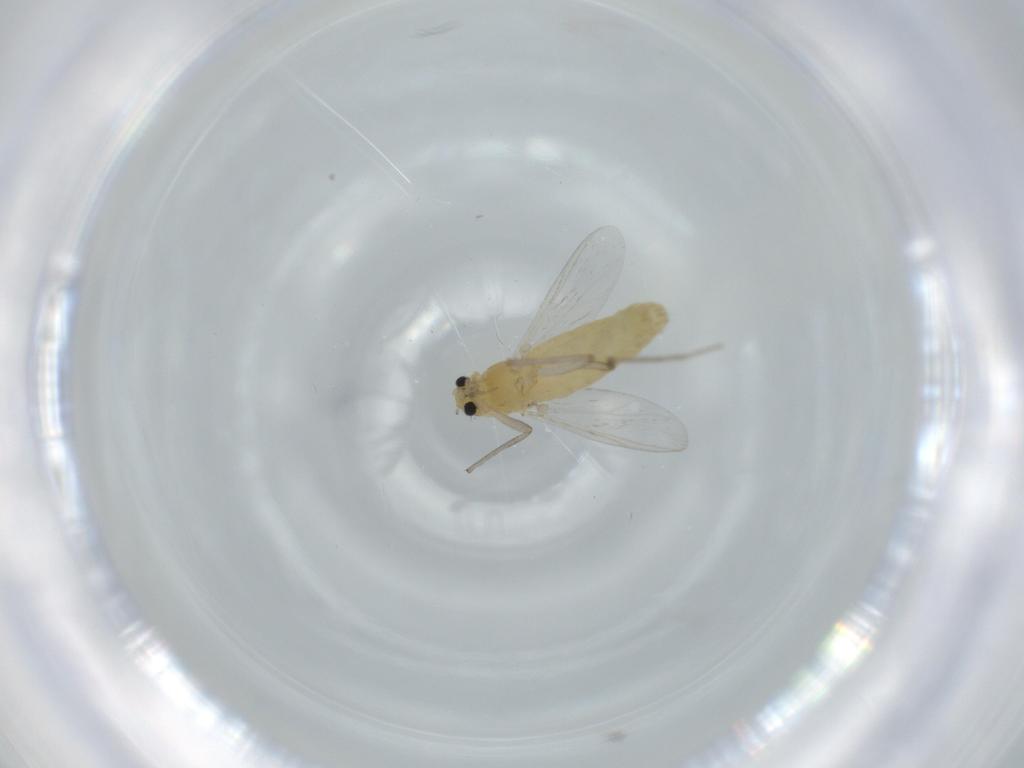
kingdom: Animalia
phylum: Arthropoda
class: Insecta
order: Diptera
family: Chironomidae
